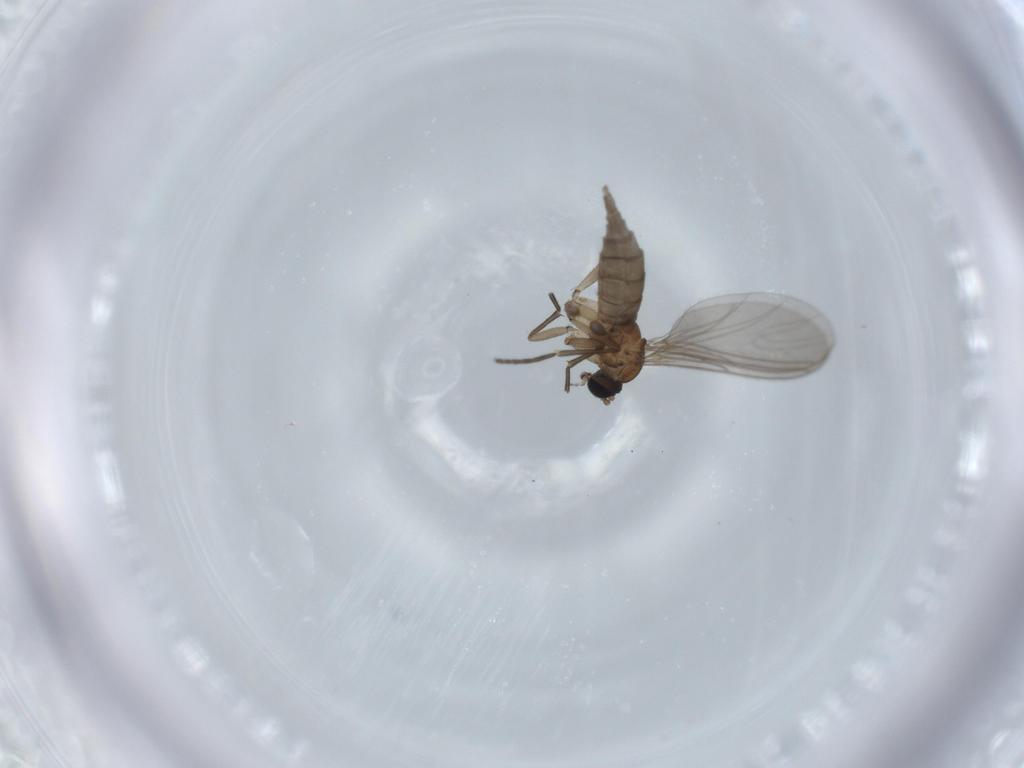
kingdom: Animalia
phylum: Arthropoda
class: Insecta
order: Diptera
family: Sciaridae
